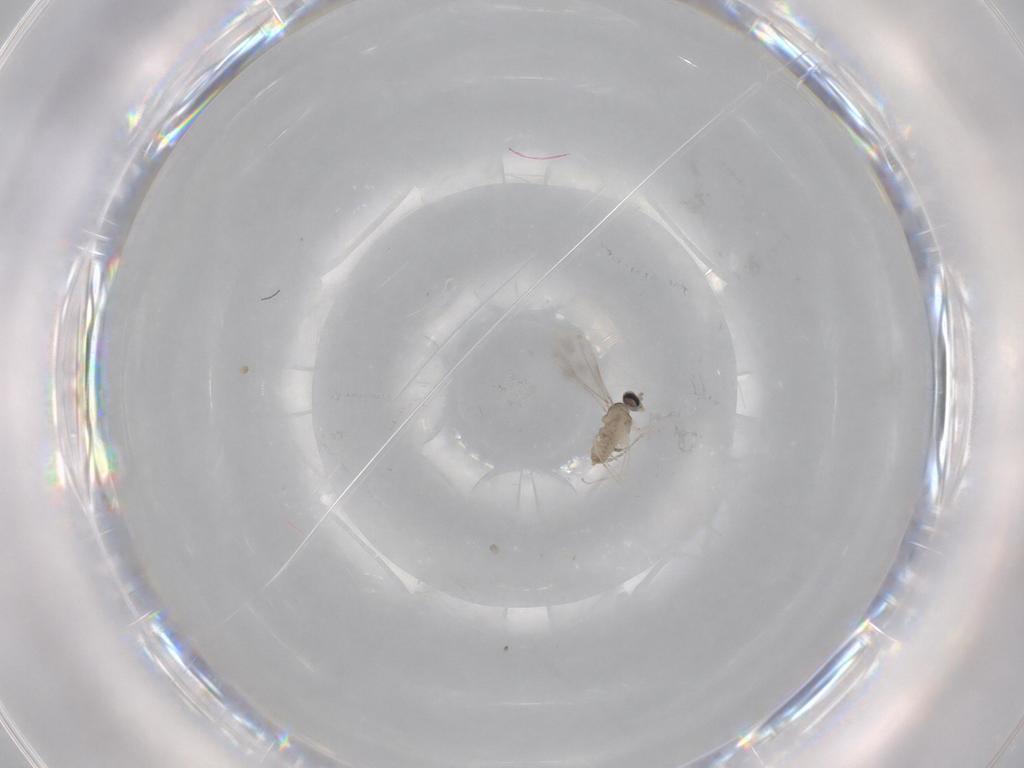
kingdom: Animalia
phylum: Arthropoda
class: Insecta
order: Diptera
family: Cecidomyiidae
